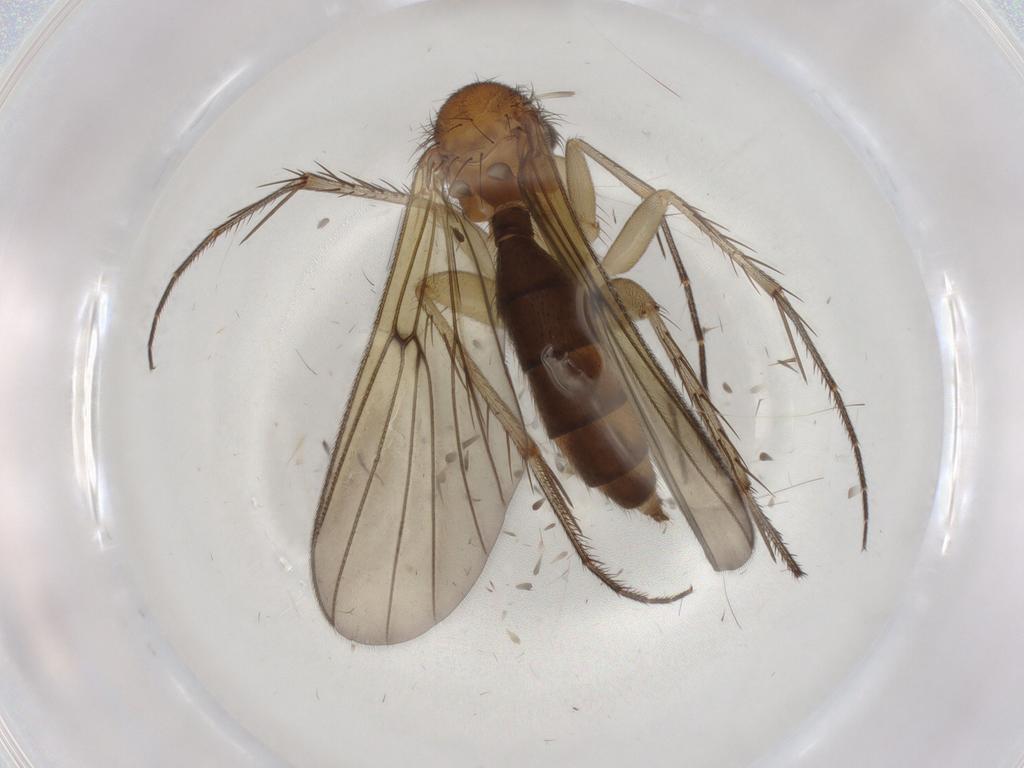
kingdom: Animalia
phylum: Arthropoda
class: Insecta
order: Diptera
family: Mycetophilidae
